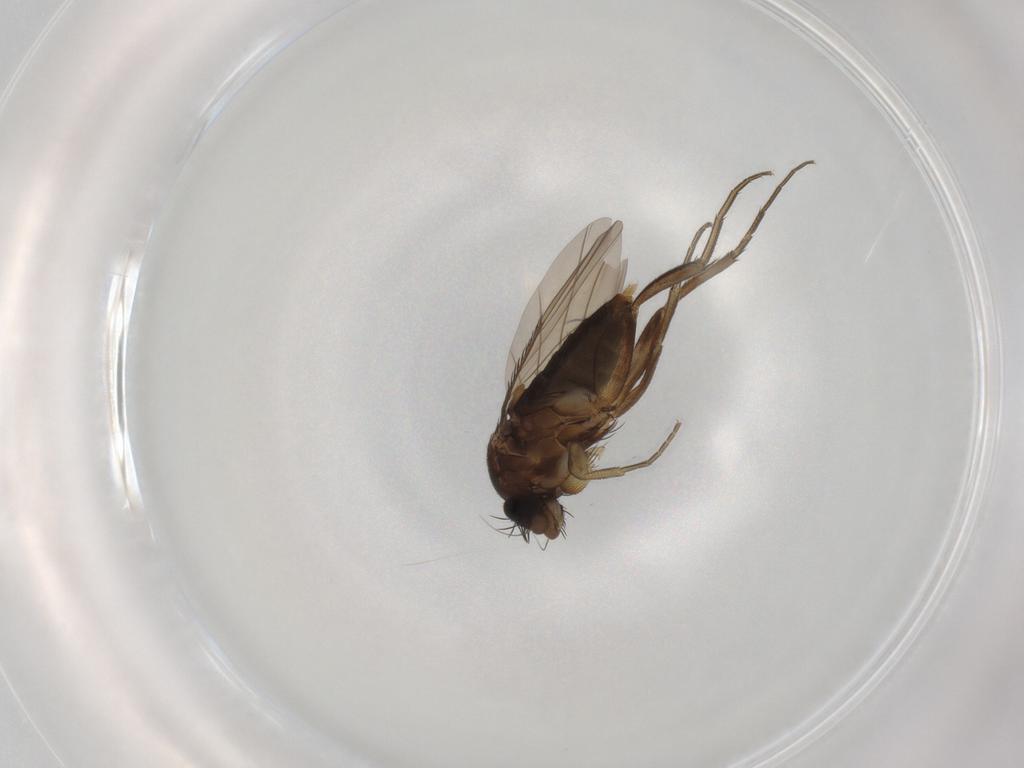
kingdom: Animalia
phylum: Arthropoda
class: Insecta
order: Diptera
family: Phoridae
